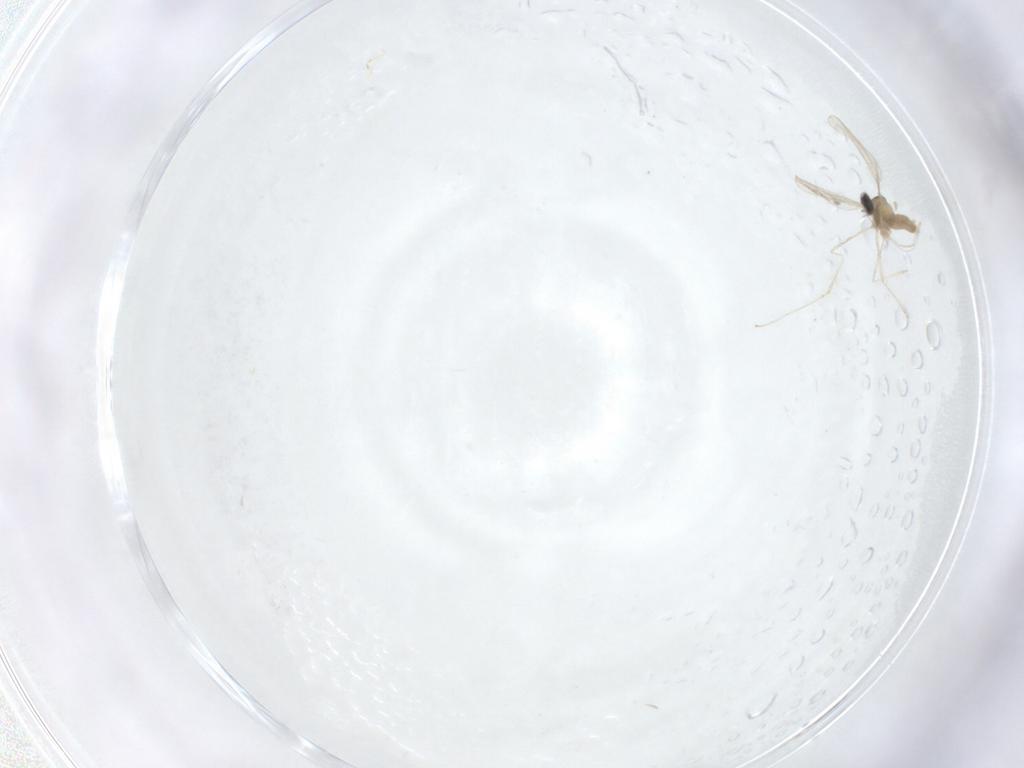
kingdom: Animalia
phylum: Arthropoda
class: Insecta
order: Diptera
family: Cecidomyiidae
